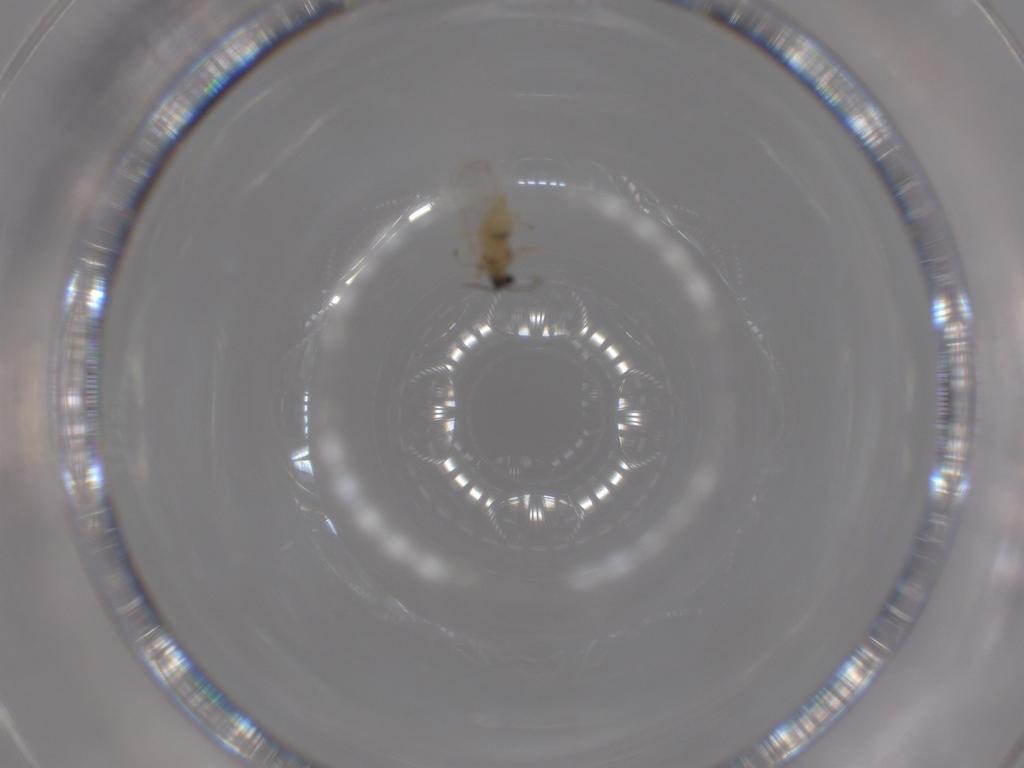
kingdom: Animalia
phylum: Arthropoda
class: Insecta
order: Diptera
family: Cecidomyiidae
